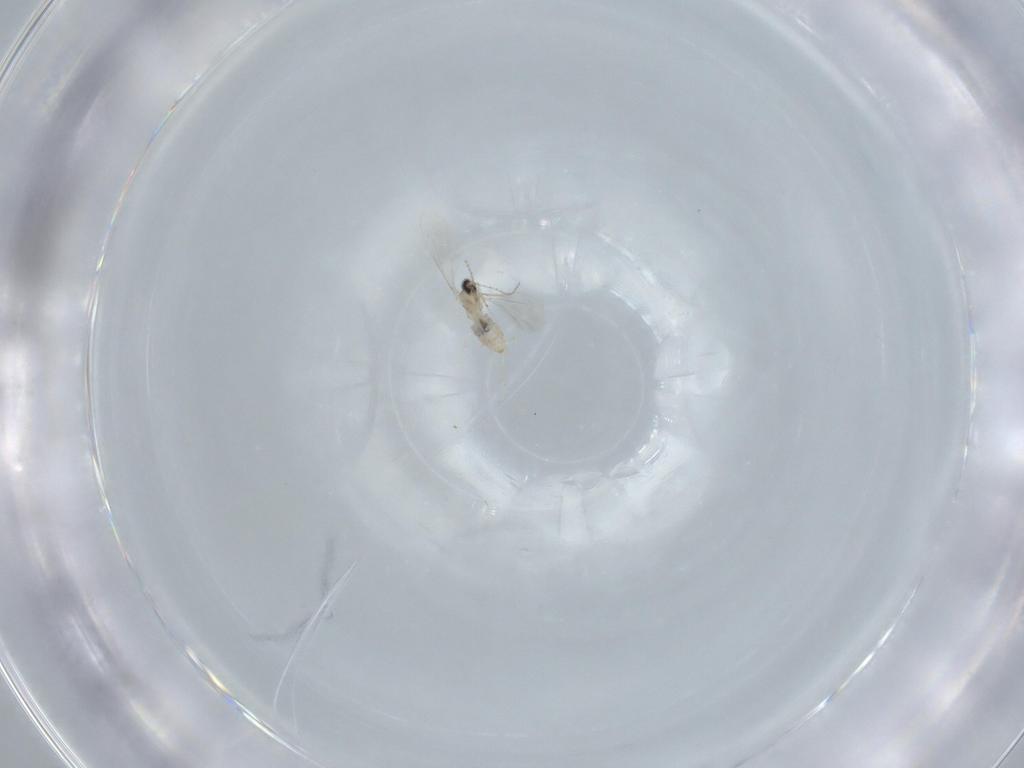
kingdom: Animalia
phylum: Arthropoda
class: Insecta
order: Diptera
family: Cecidomyiidae
